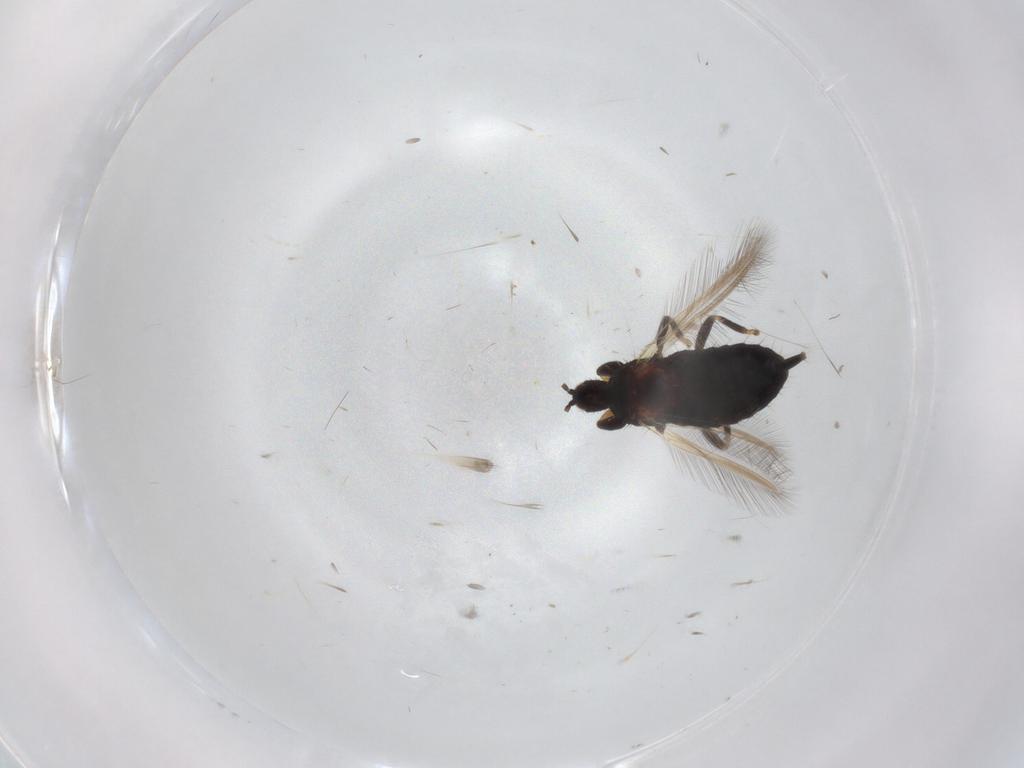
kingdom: Animalia
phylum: Arthropoda
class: Insecta
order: Thysanoptera
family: Phlaeothripidae
